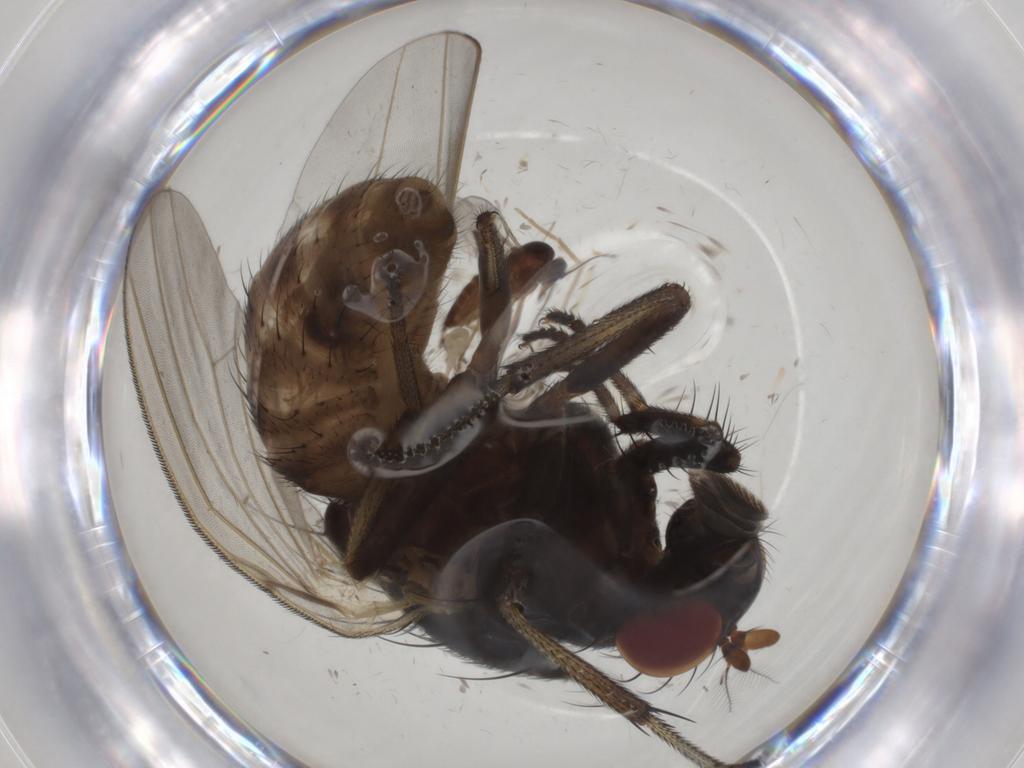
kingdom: Animalia
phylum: Arthropoda
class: Insecta
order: Diptera
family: Lauxaniidae
